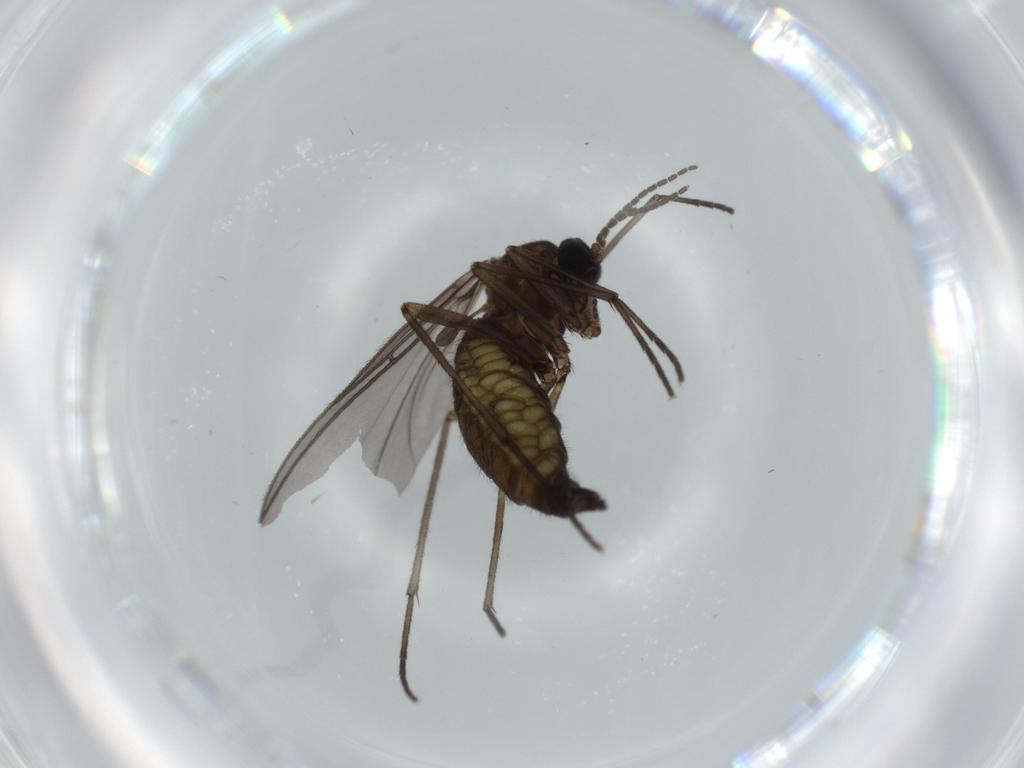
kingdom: Animalia
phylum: Arthropoda
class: Insecta
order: Diptera
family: Sciaridae
